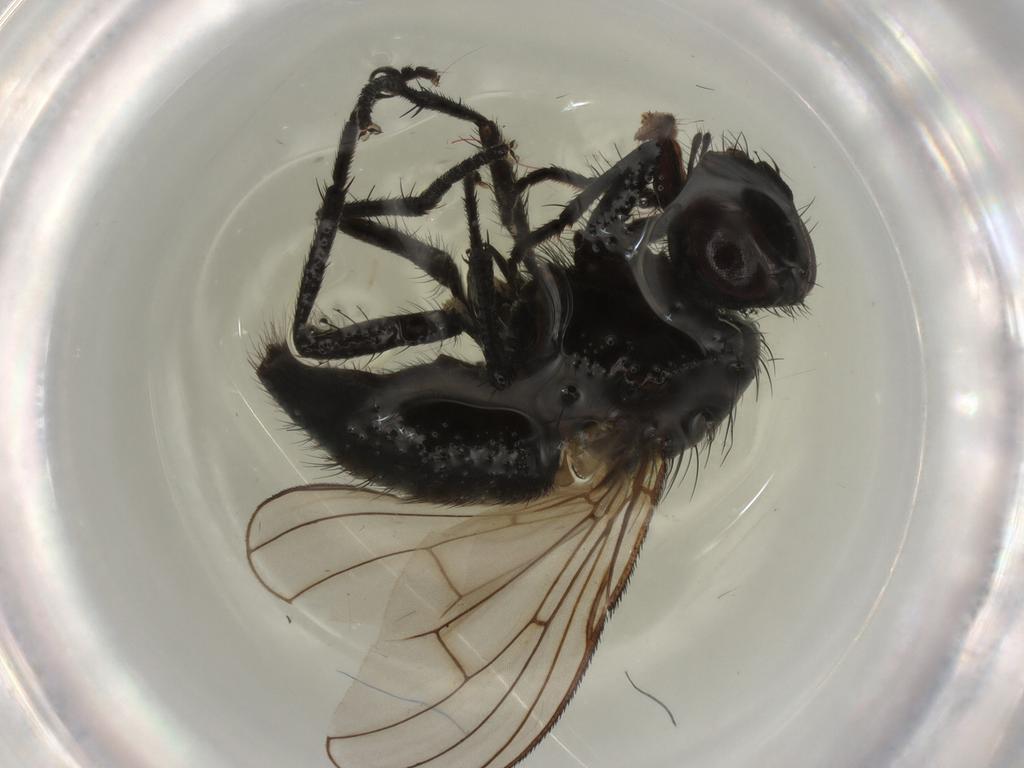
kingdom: Animalia
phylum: Arthropoda
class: Insecta
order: Diptera
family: Muscidae
